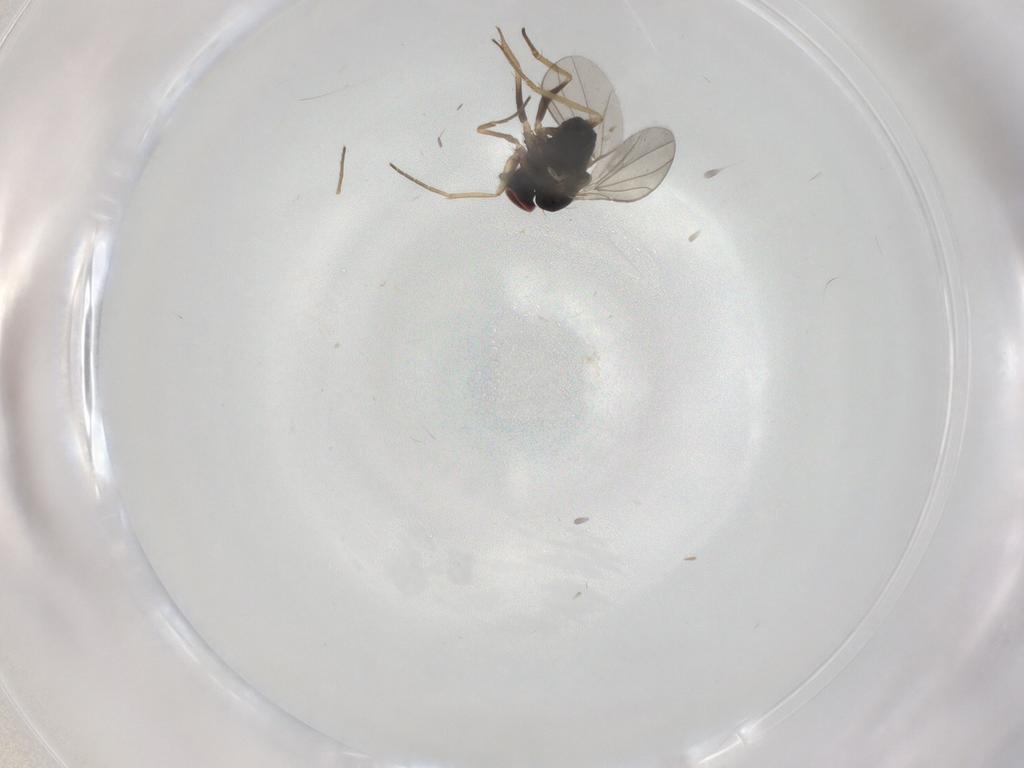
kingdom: Animalia
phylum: Arthropoda
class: Insecta
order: Diptera
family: Dolichopodidae
